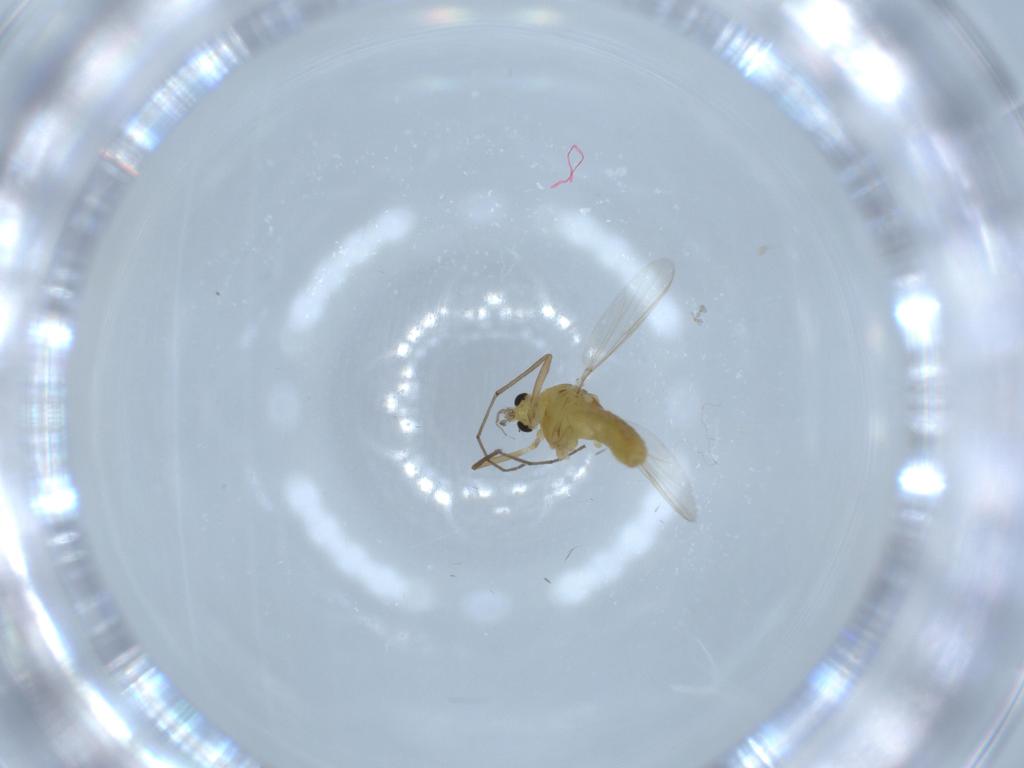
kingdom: Animalia
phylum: Arthropoda
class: Insecta
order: Diptera
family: Chironomidae
